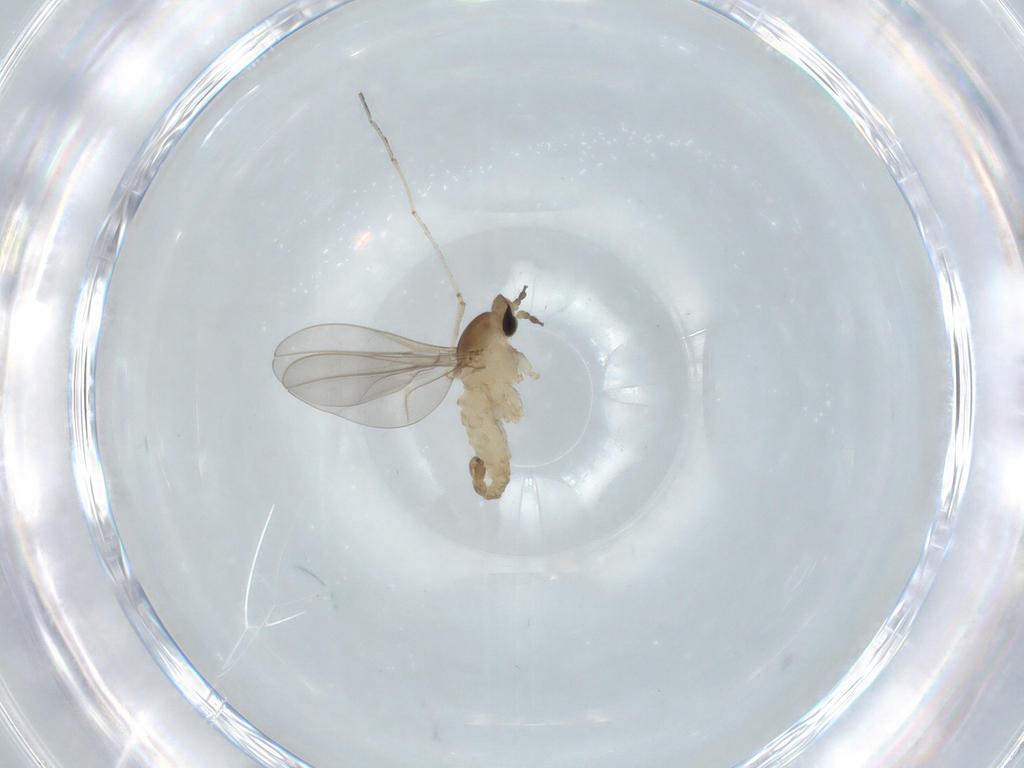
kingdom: Animalia
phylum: Arthropoda
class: Insecta
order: Diptera
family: Cecidomyiidae
